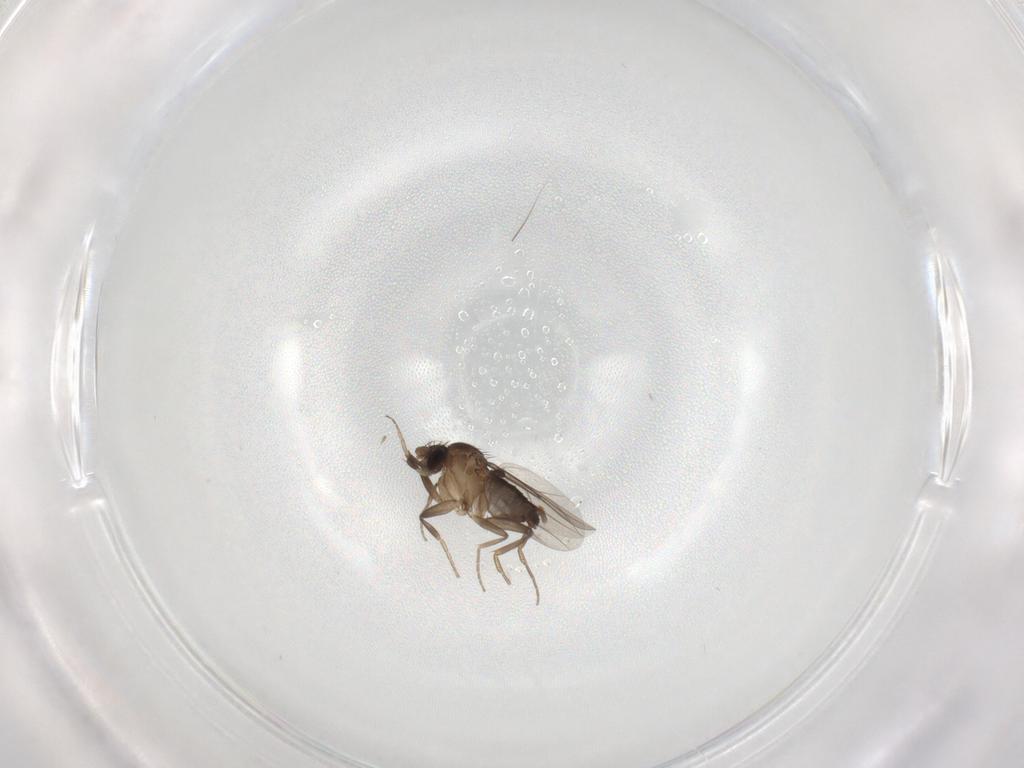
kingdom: Animalia
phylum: Arthropoda
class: Insecta
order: Diptera
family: Phoridae
